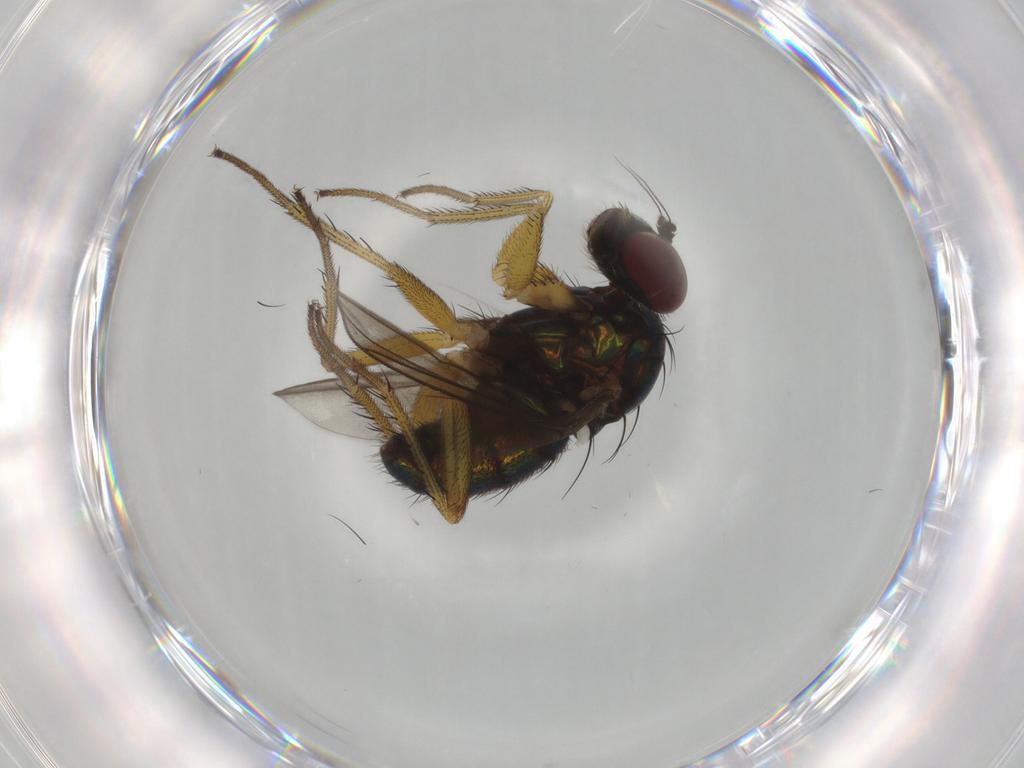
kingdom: Animalia
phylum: Arthropoda
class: Insecta
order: Diptera
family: Dolichopodidae
